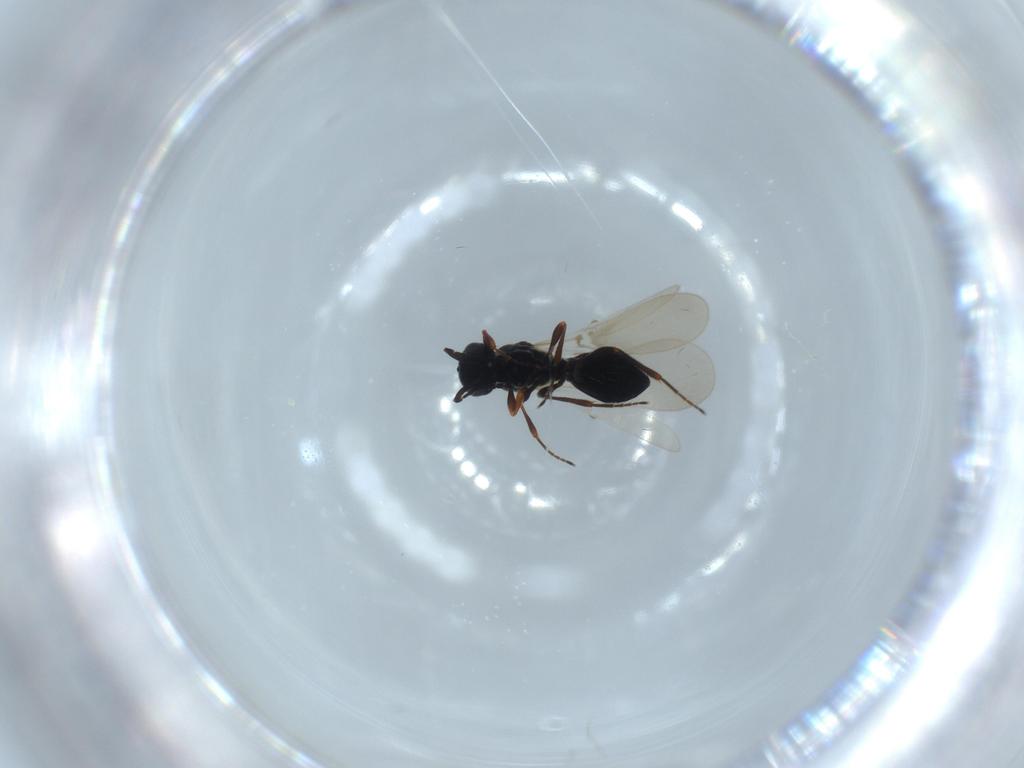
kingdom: Animalia
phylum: Arthropoda
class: Insecta
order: Hymenoptera
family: Platygastridae
